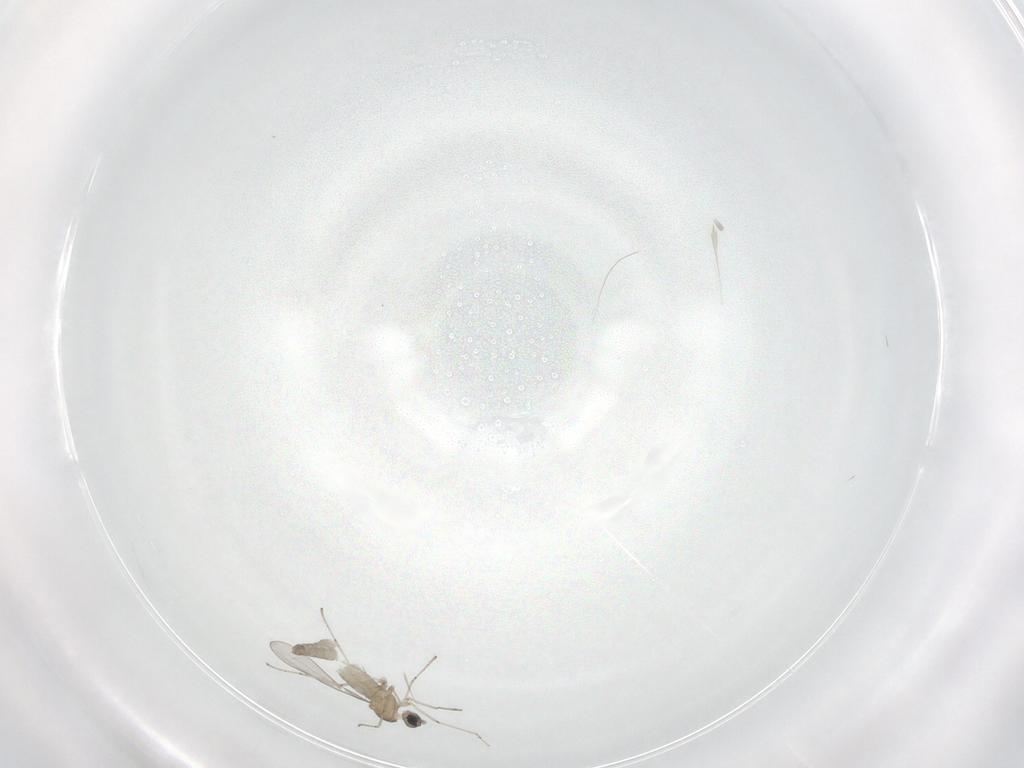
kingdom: Animalia
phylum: Arthropoda
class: Insecta
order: Diptera
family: Cecidomyiidae
